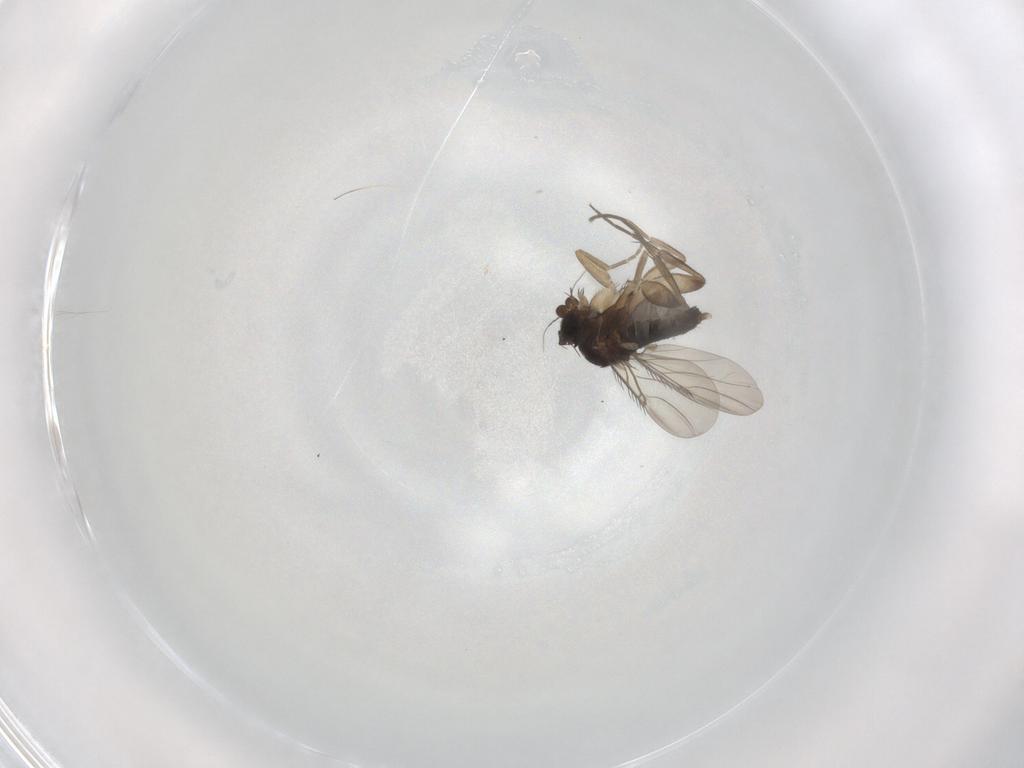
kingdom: Animalia
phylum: Arthropoda
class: Insecta
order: Diptera
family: Phoridae
